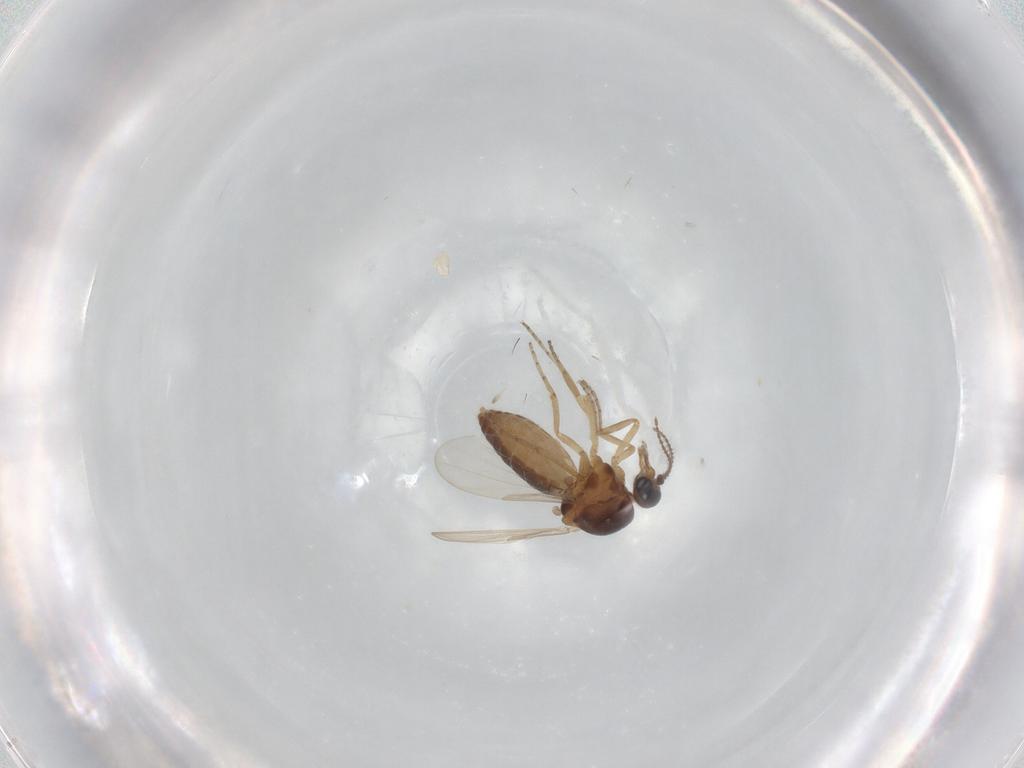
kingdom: Animalia
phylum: Arthropoda
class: Insecta
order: Diptera
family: Ceratopogonidae
